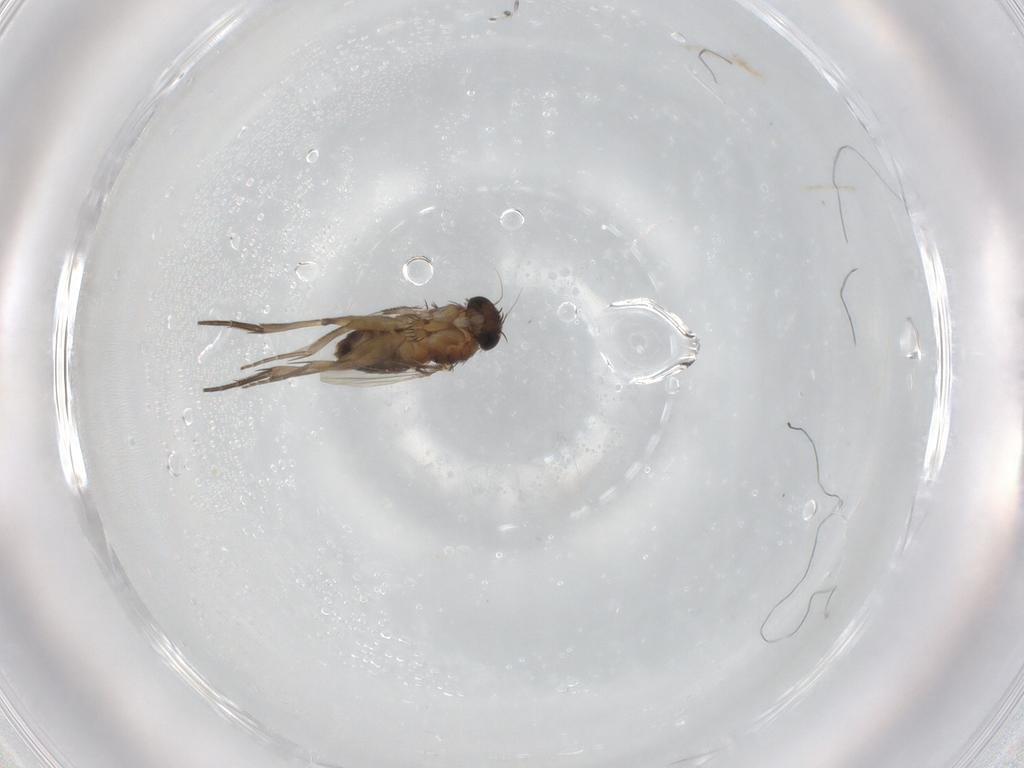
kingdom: Animalia
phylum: Arthropoda
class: Insecta
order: Diptera
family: Phoridae
